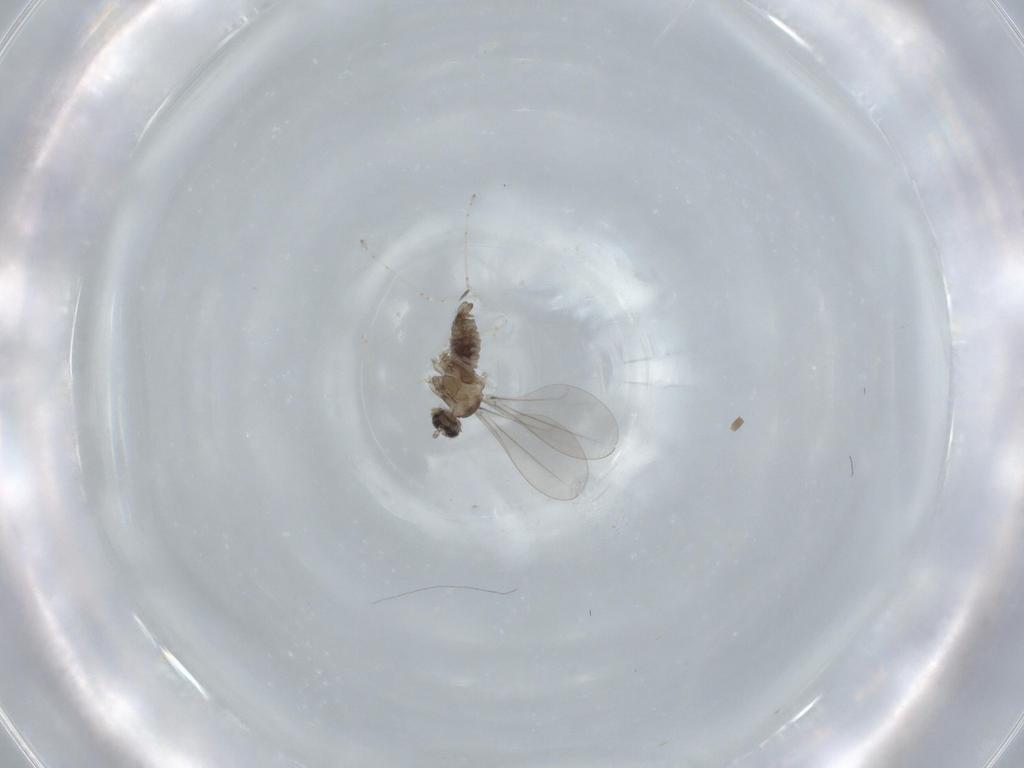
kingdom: Animalia
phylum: Arthropoda
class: Insecta
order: Diptera
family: Cecidomyiidae
